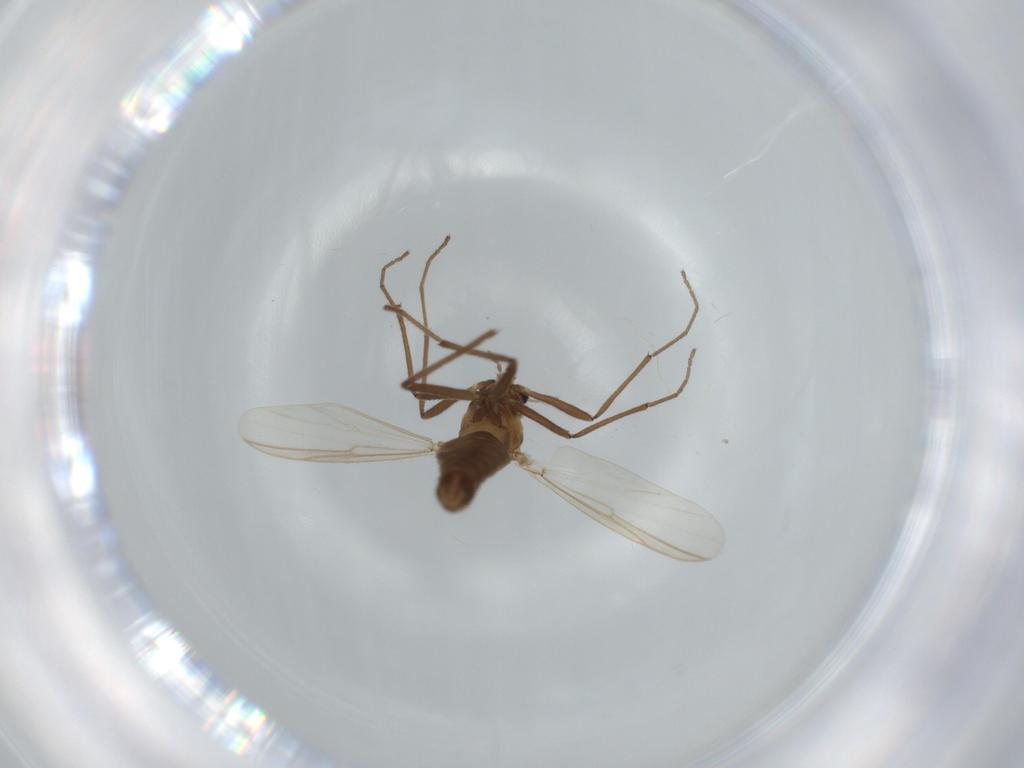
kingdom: Animalia
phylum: Arthropoda
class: Insecta
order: Diptera
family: Chironomidae
